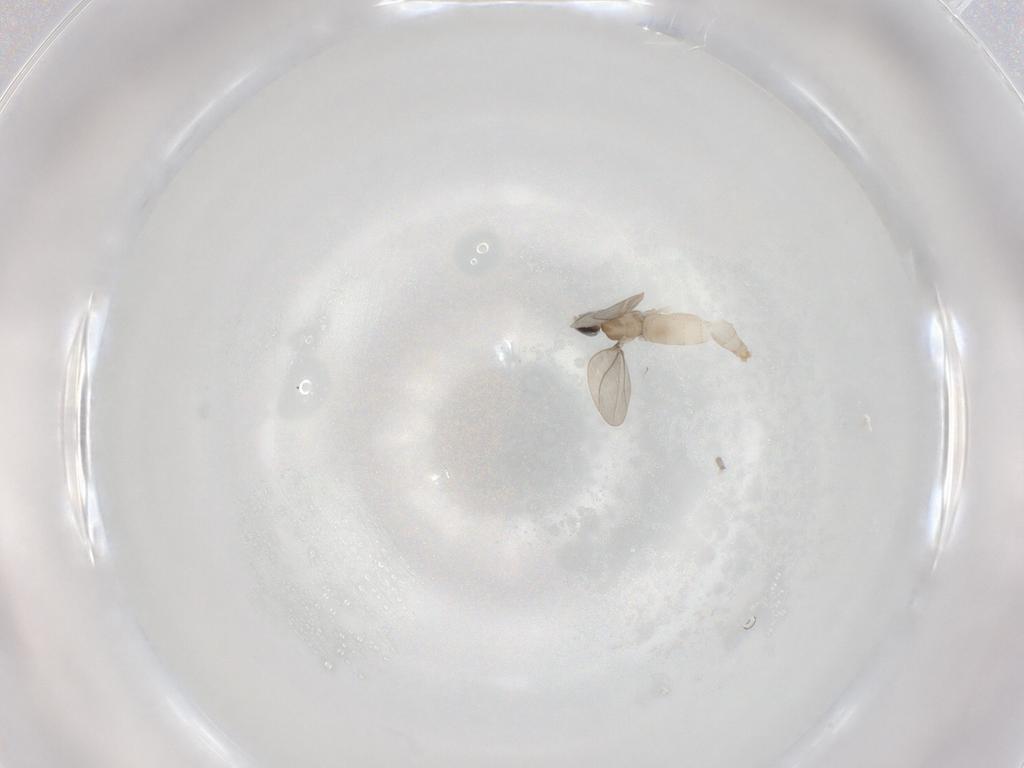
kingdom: Animalia
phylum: Arthropoda
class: Insecta
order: Diptera
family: Cecidomyiidae
